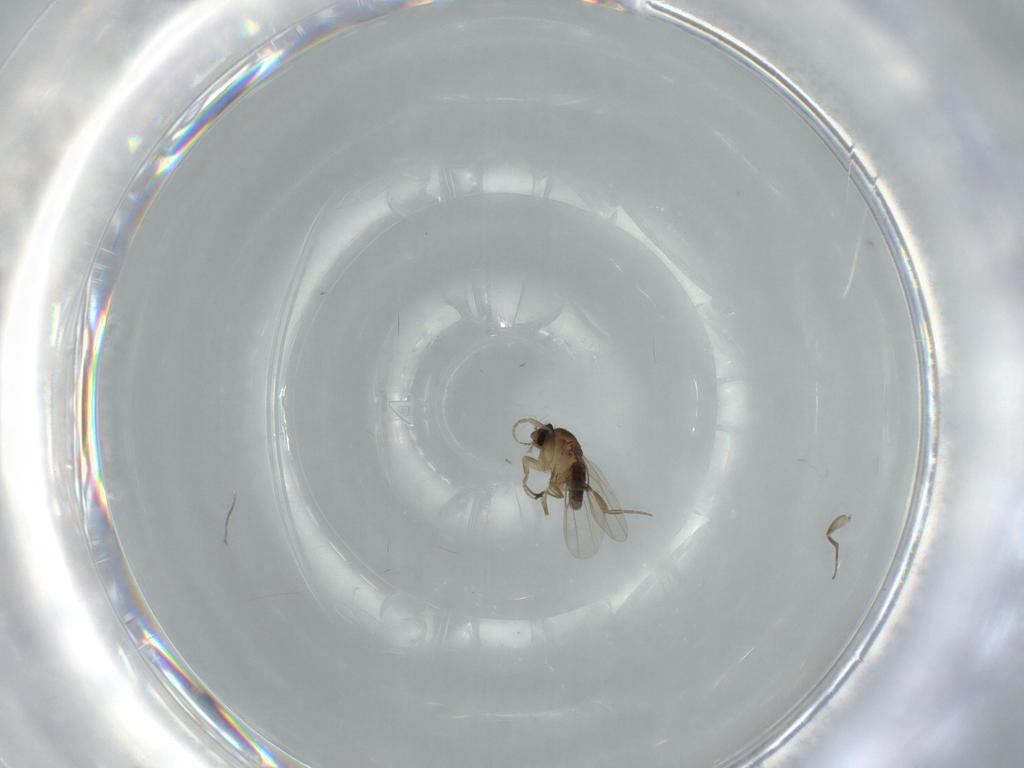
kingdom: Animalia
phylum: Arthropoda
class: Insecta
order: Diptera
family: Phoridae
